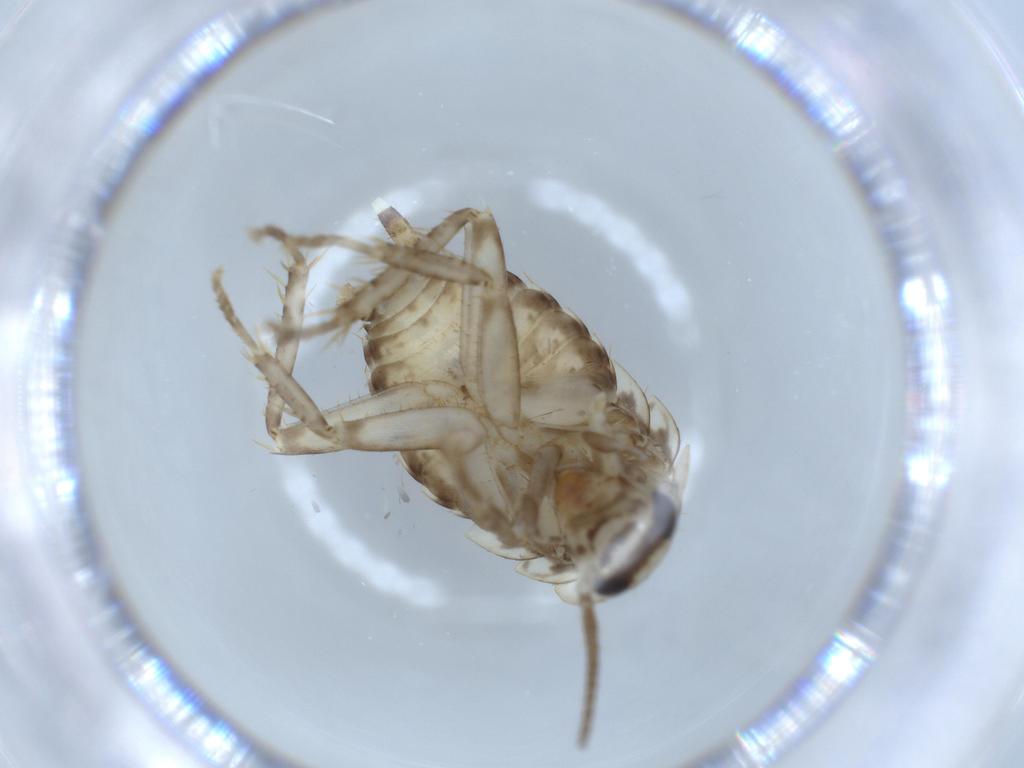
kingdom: Animalia
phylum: Arthropoda
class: Insecta
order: Blattodea
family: Ectobiidae
